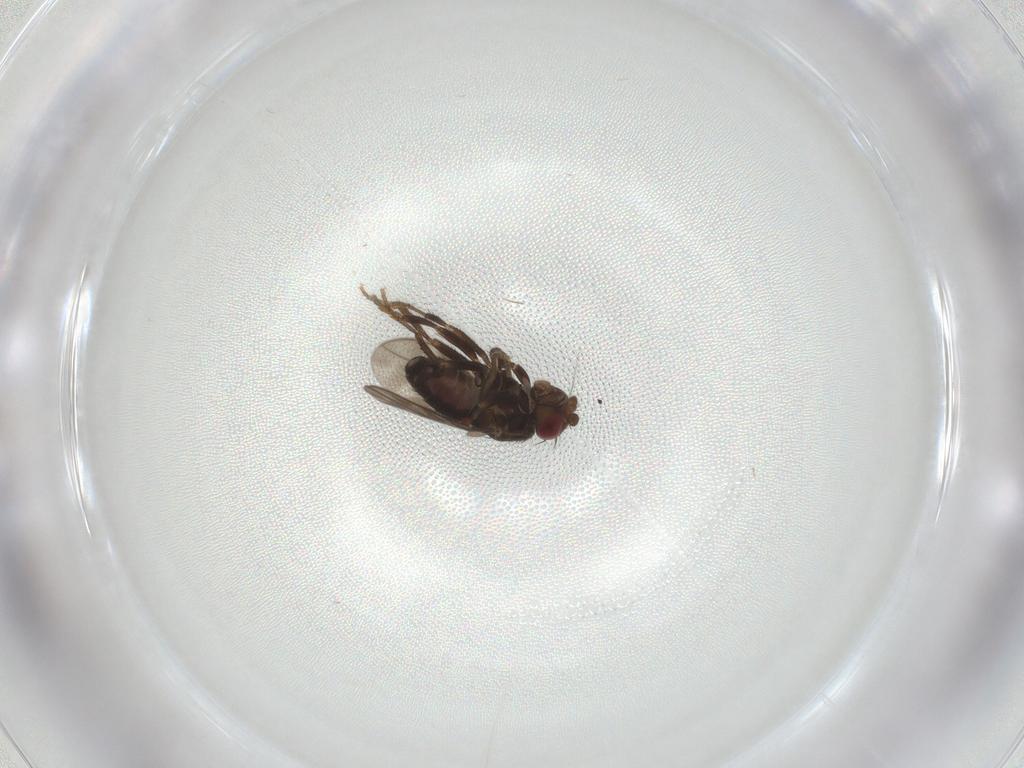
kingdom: Animalia
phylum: Arthropoda
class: Insecta
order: Diptera
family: Sphaeroceridae
